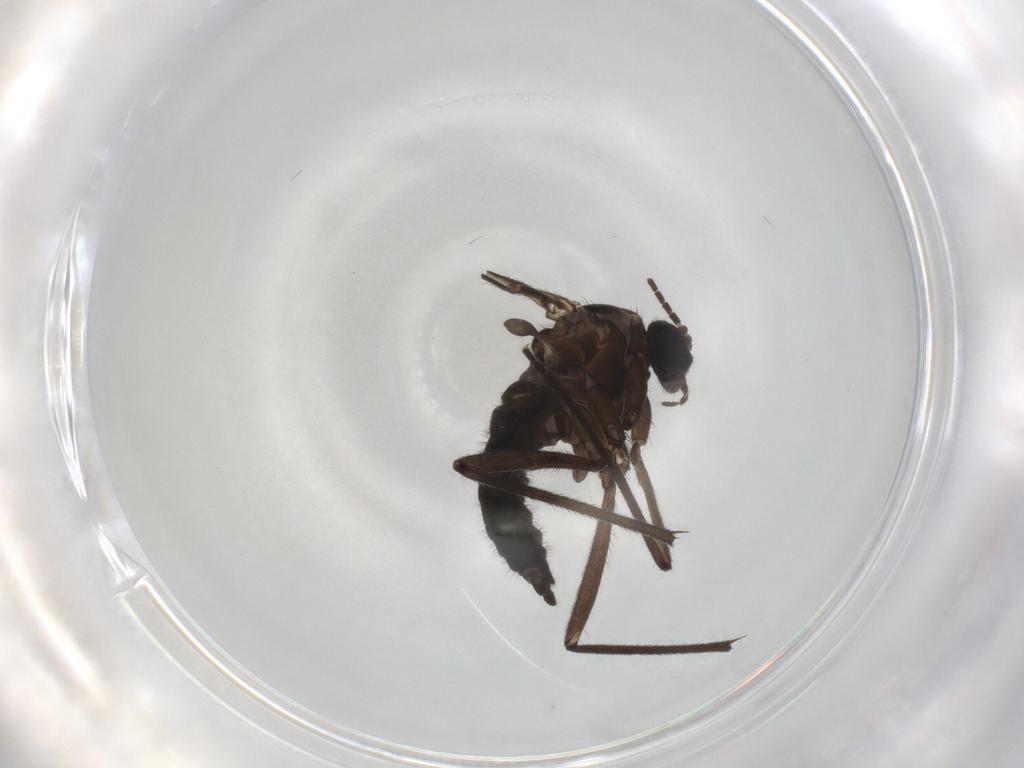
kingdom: Animalia
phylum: Arthropoda
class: Insecta
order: Diptera
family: Sciaridae
